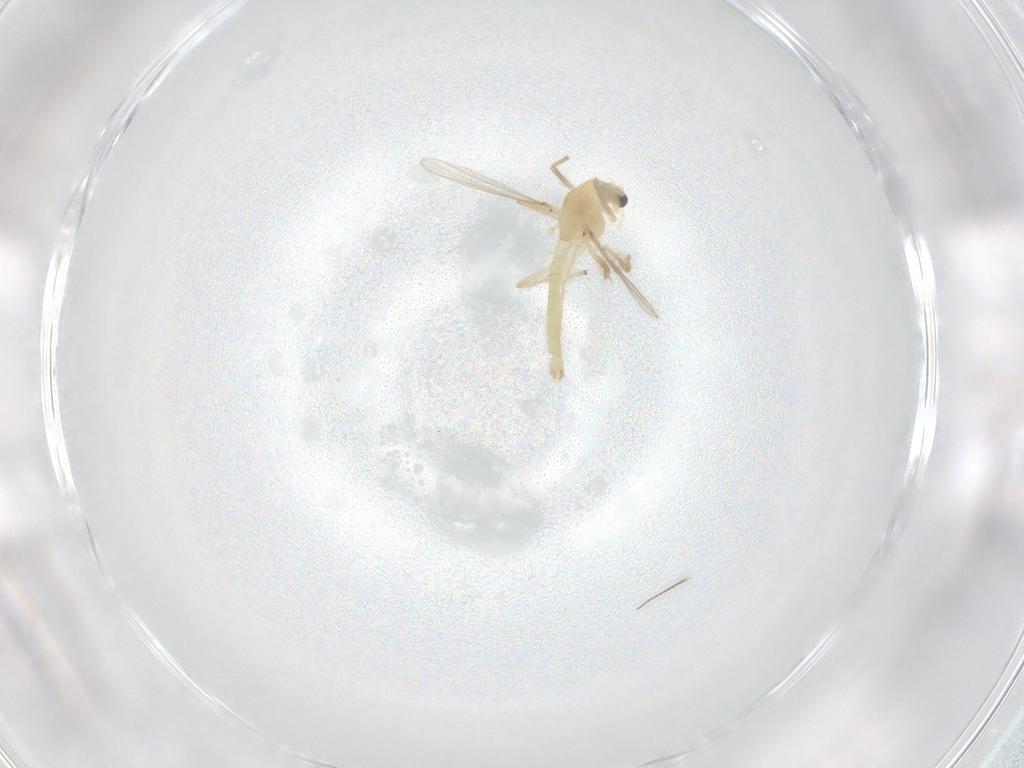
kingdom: Animalia
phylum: Arthropoda
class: Insecta
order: Diptera
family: Chironomidae
